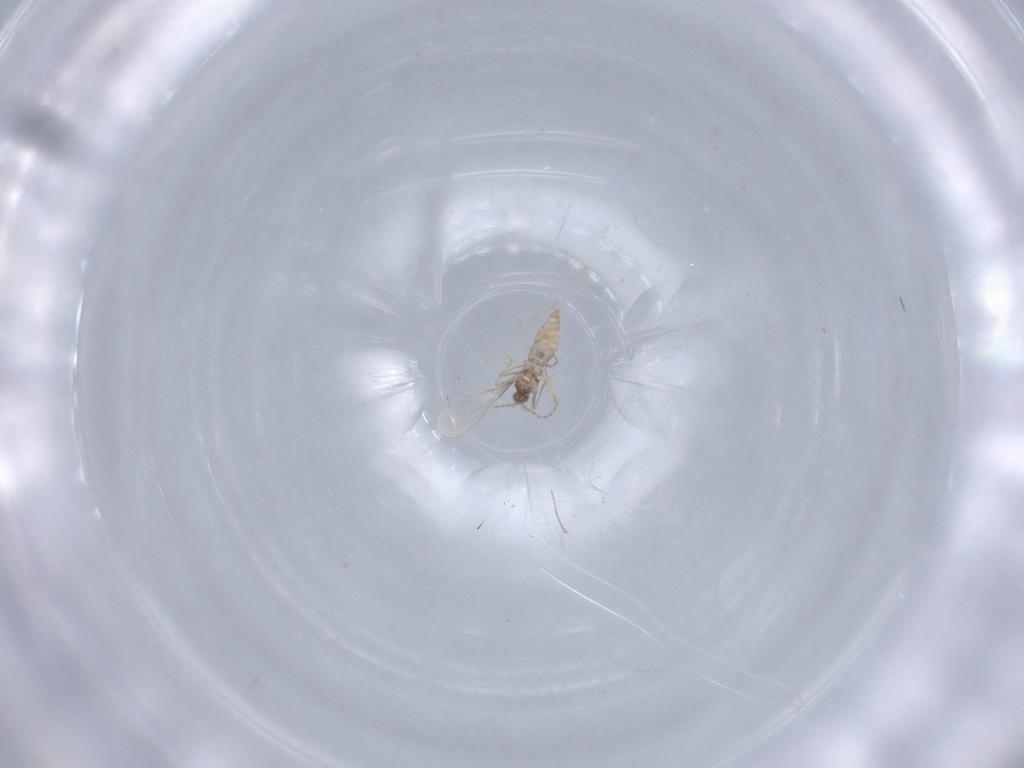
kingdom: Animalia
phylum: Arthropoda
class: Insecta
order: Diptera
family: Cecidomyiidae
